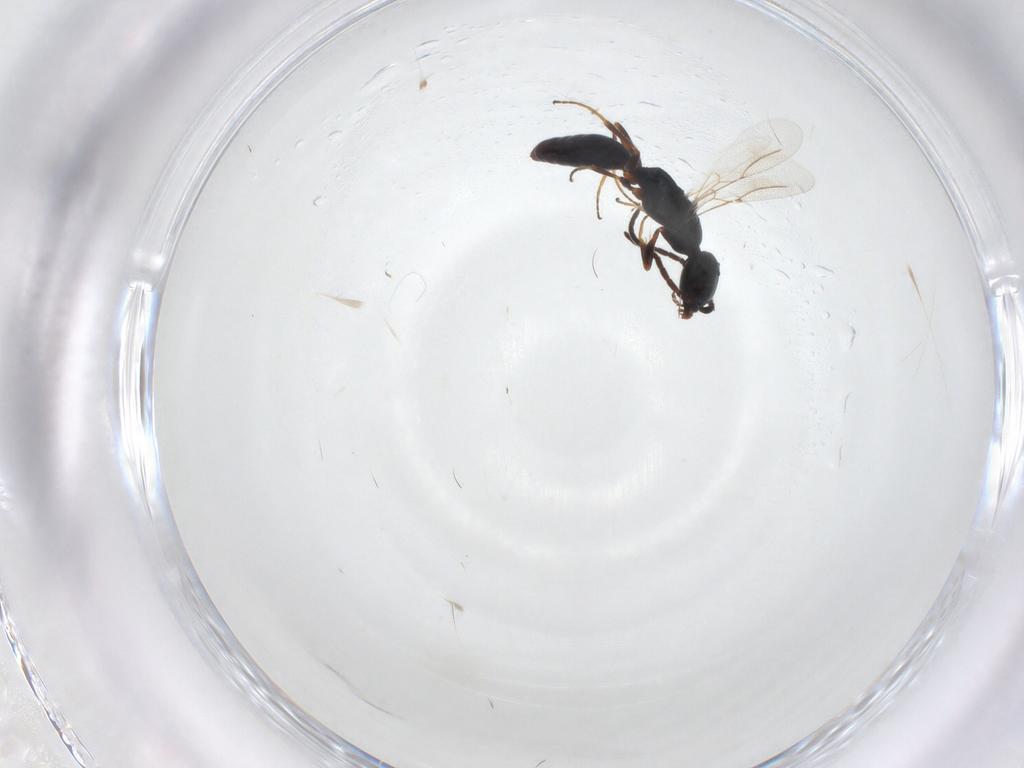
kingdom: Animalia
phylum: Arthropoda
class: Insecta
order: Hymenoptera
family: Bethylidae
